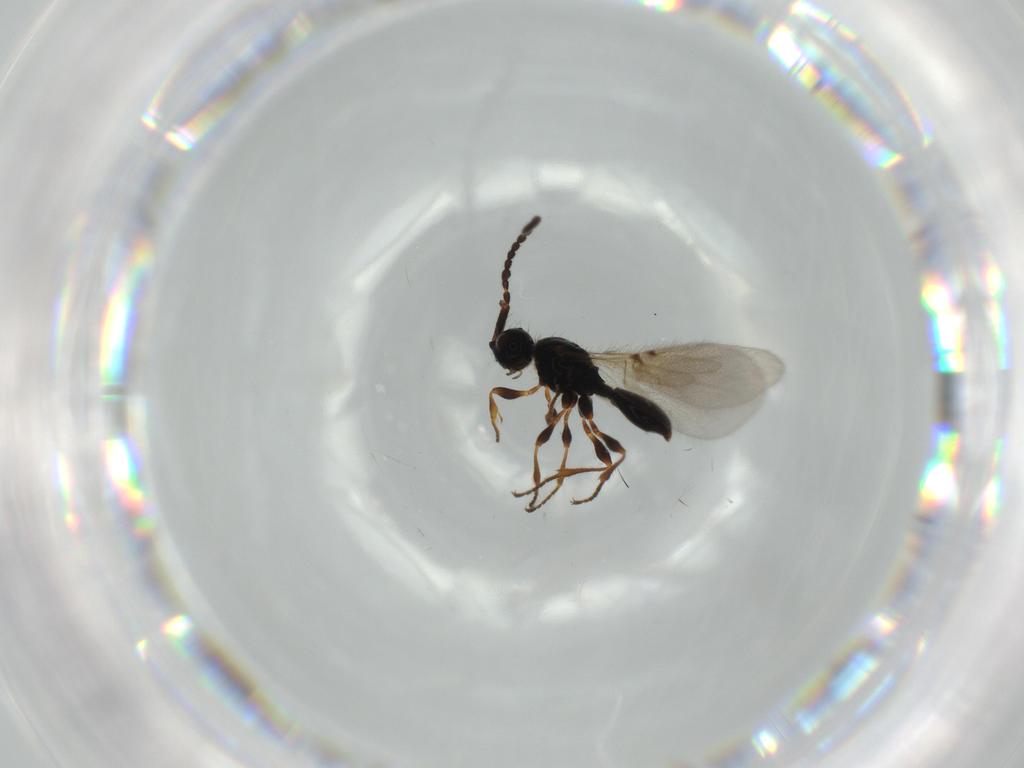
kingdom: Animalia
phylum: Arthropoda
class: Insecta
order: Hymenoptera
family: Diapriidae
